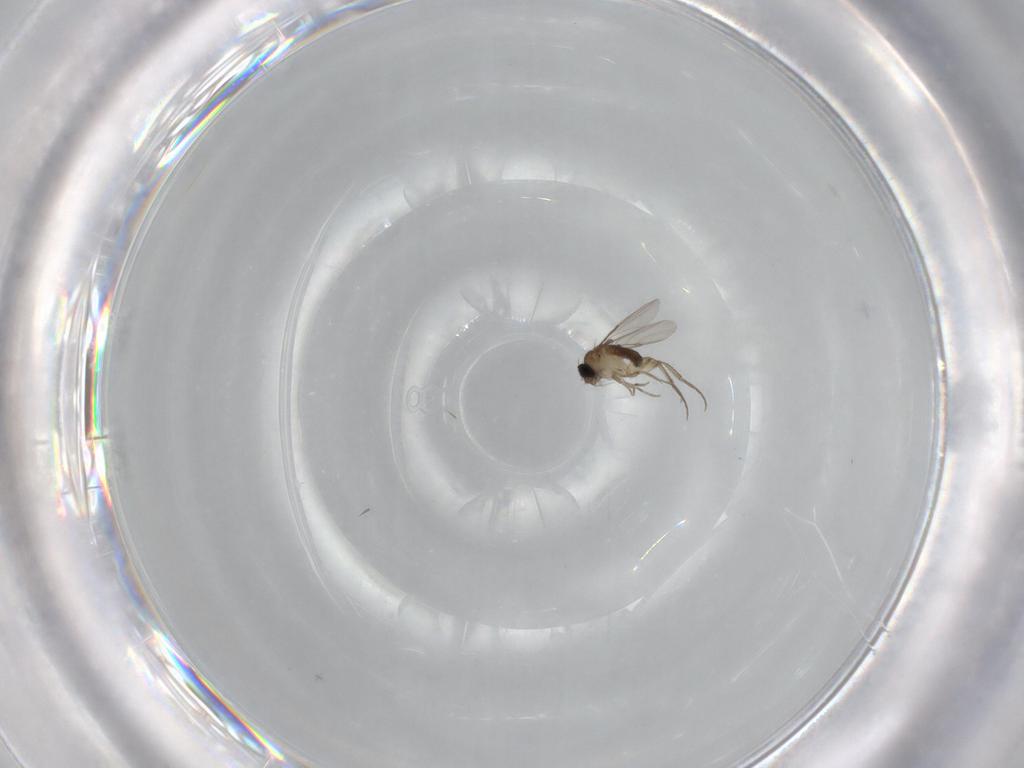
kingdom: Animalia
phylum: Arthropoda
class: Insecta
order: Diptera
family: Phoridae
